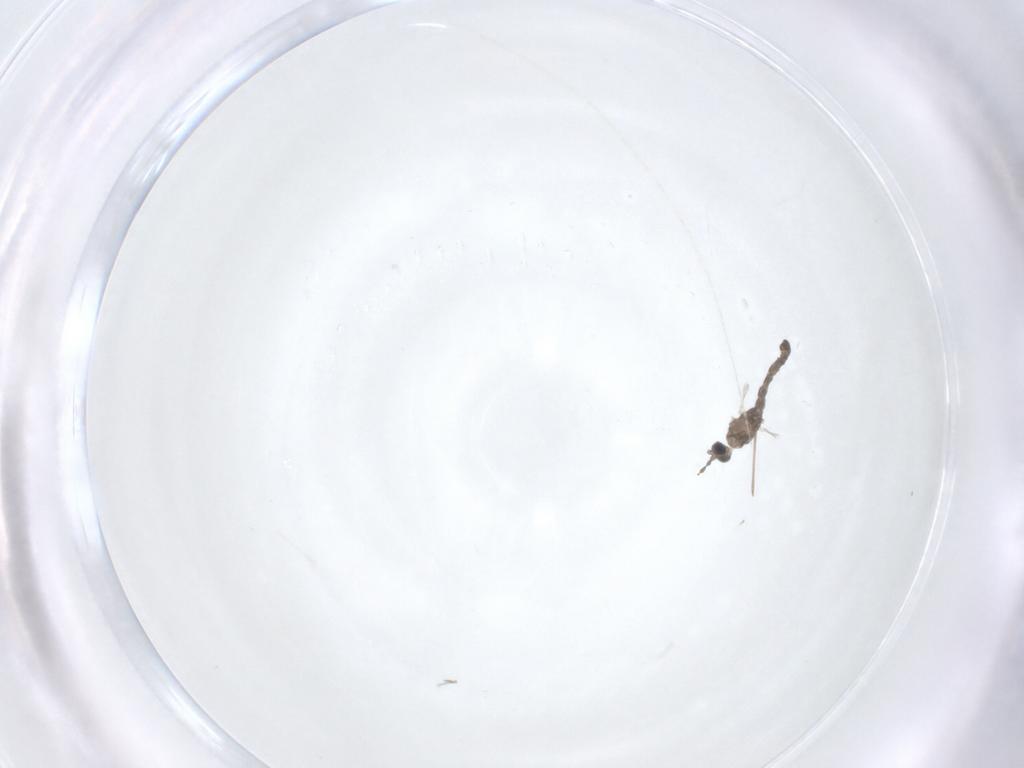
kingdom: Animalia
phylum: Arthropoda
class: Insecta
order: Diptera
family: Cecidomyiidae
